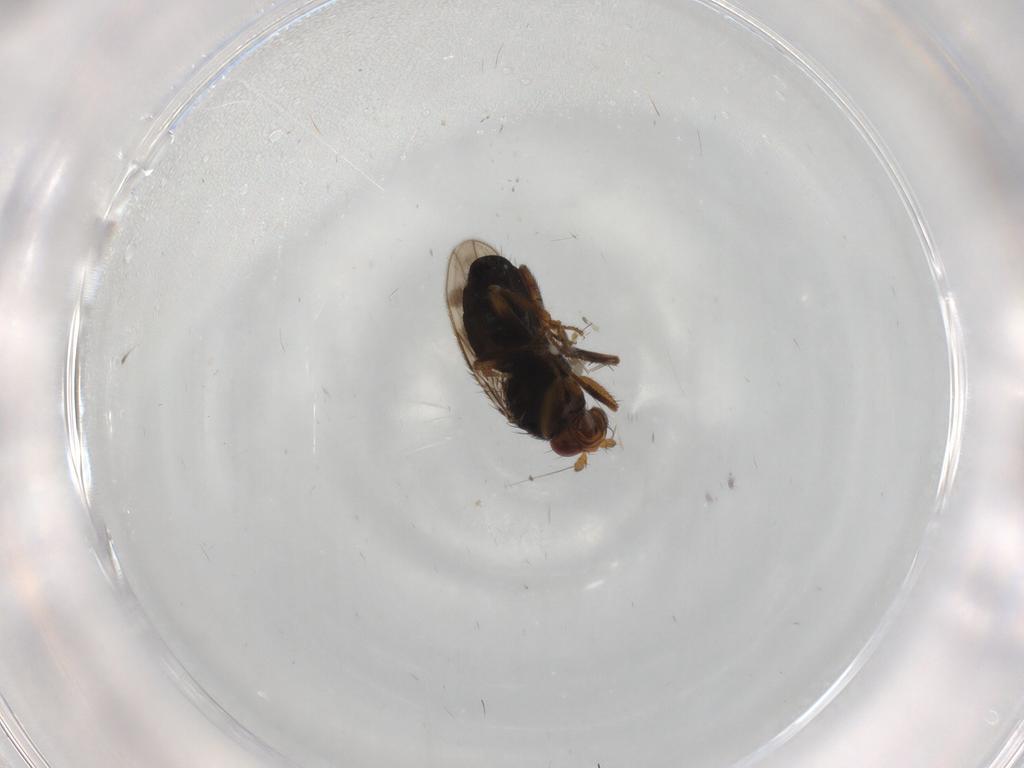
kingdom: Animalia
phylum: Arthropoda
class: Insecta
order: Diptera
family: Sphaeroceridae
